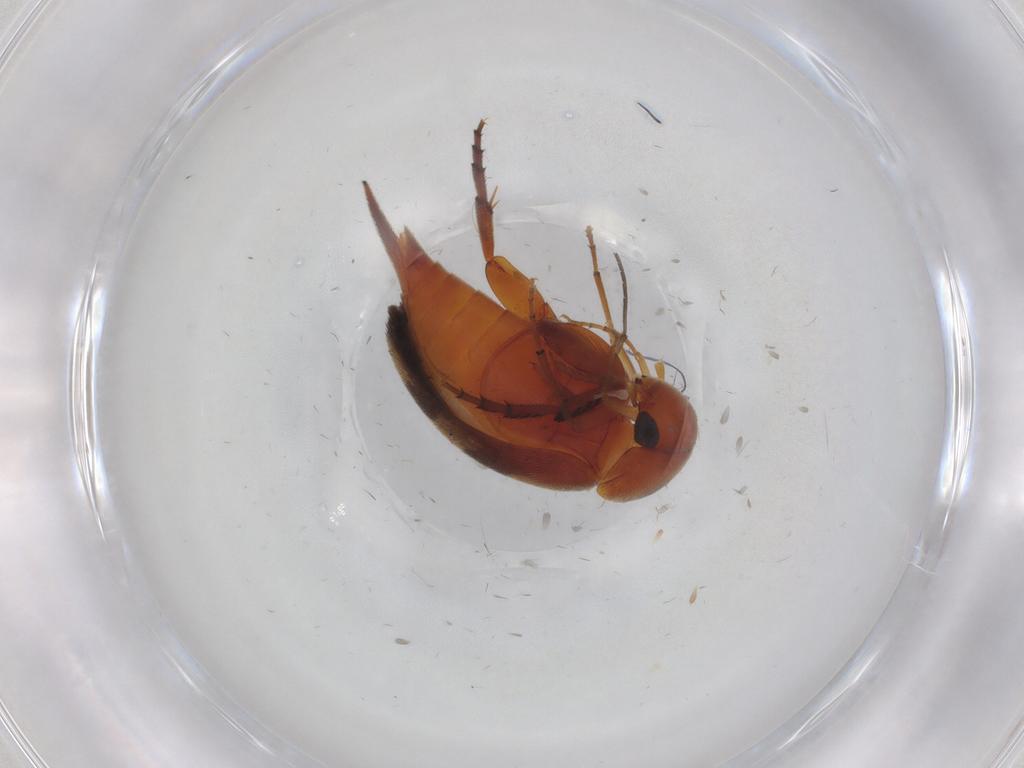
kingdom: Animalia
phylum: Arthropoda
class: Insecta
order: Coleoptera
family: Mordellidae
